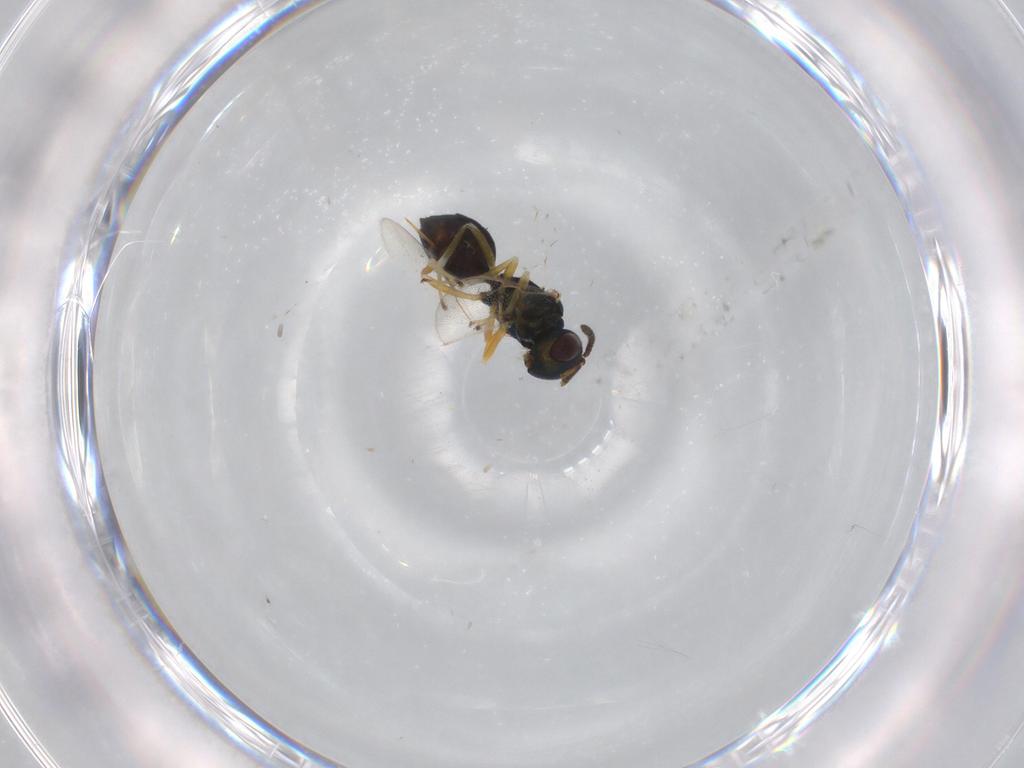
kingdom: Animalia
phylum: Arthropoda
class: Insecta
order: Hymenoptera
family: Pteromalidae
